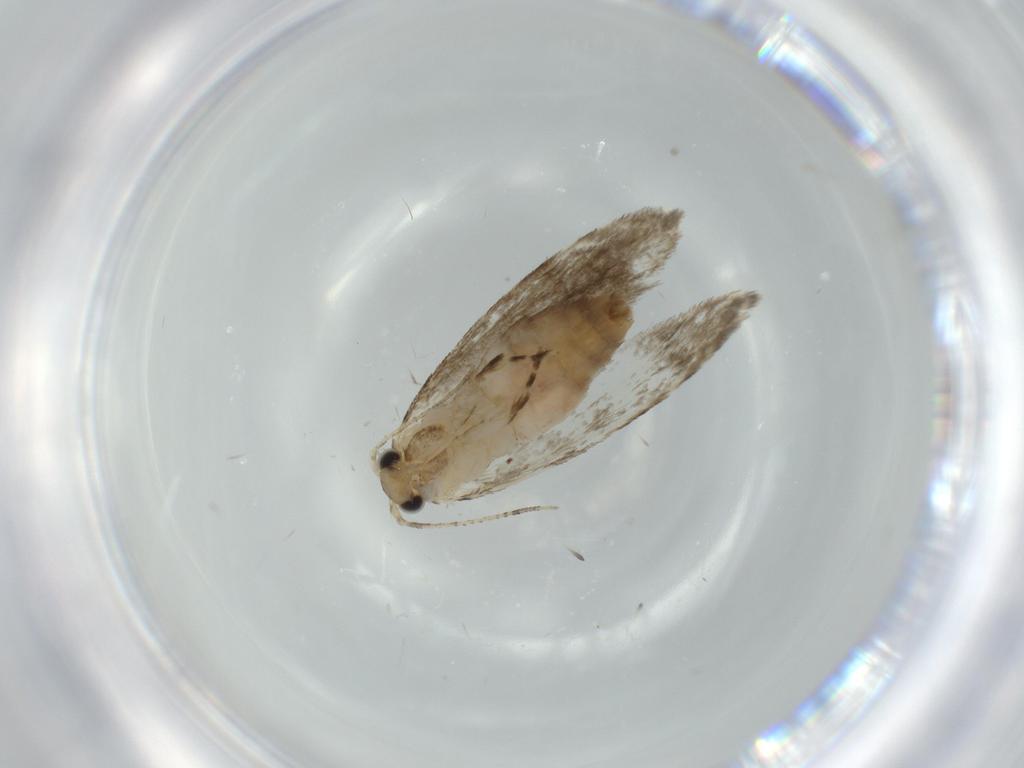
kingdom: Animalia
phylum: Arthropoda
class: Insecta
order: Lepidoptera
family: Tineidae
